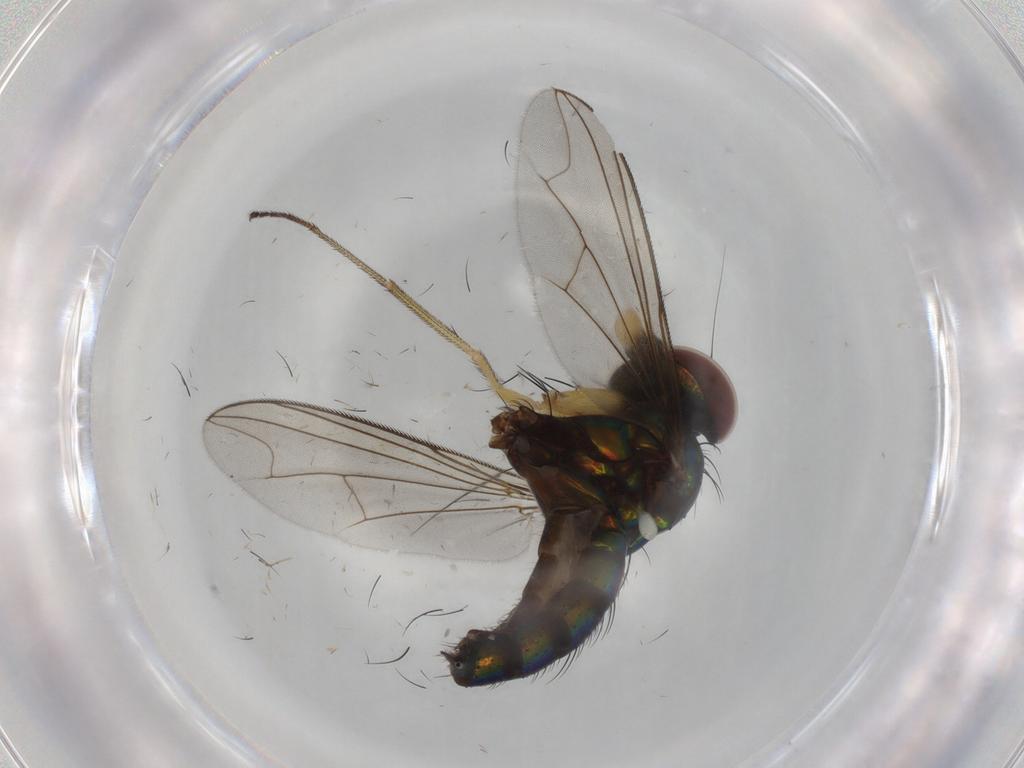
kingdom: Animalia
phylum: Arthropoda
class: Insecta
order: Diptera
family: Dolichopodidae
